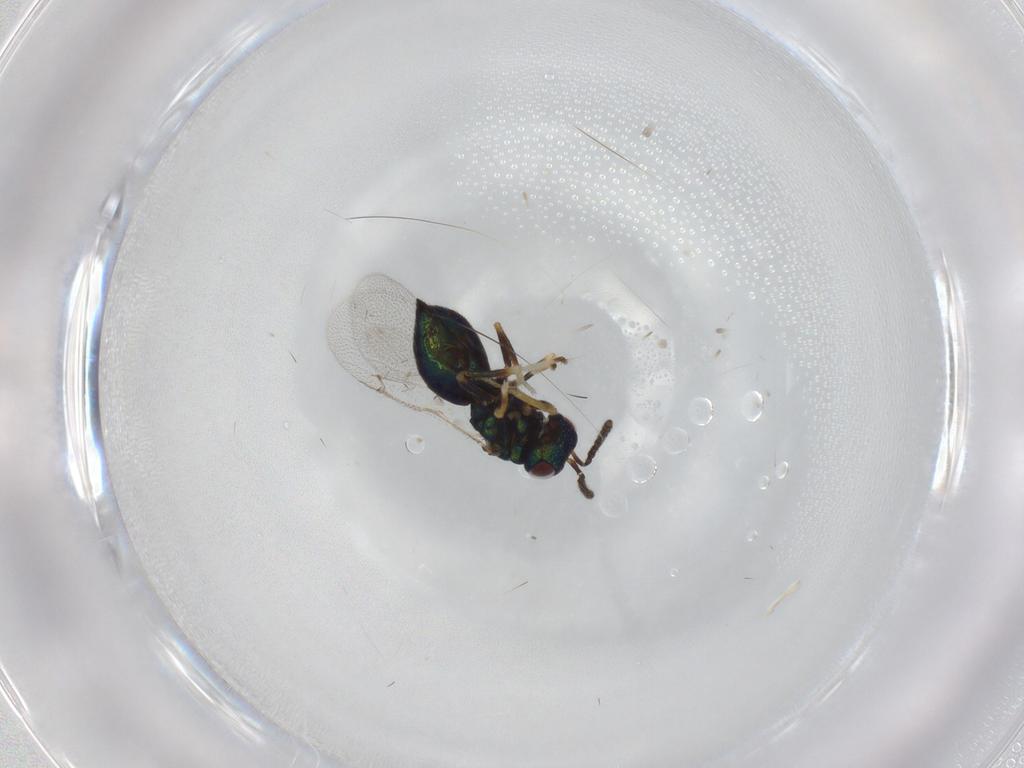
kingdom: Animalia
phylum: Arthropoda
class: Insecta
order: Hymenoptera
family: Pteromalidae
